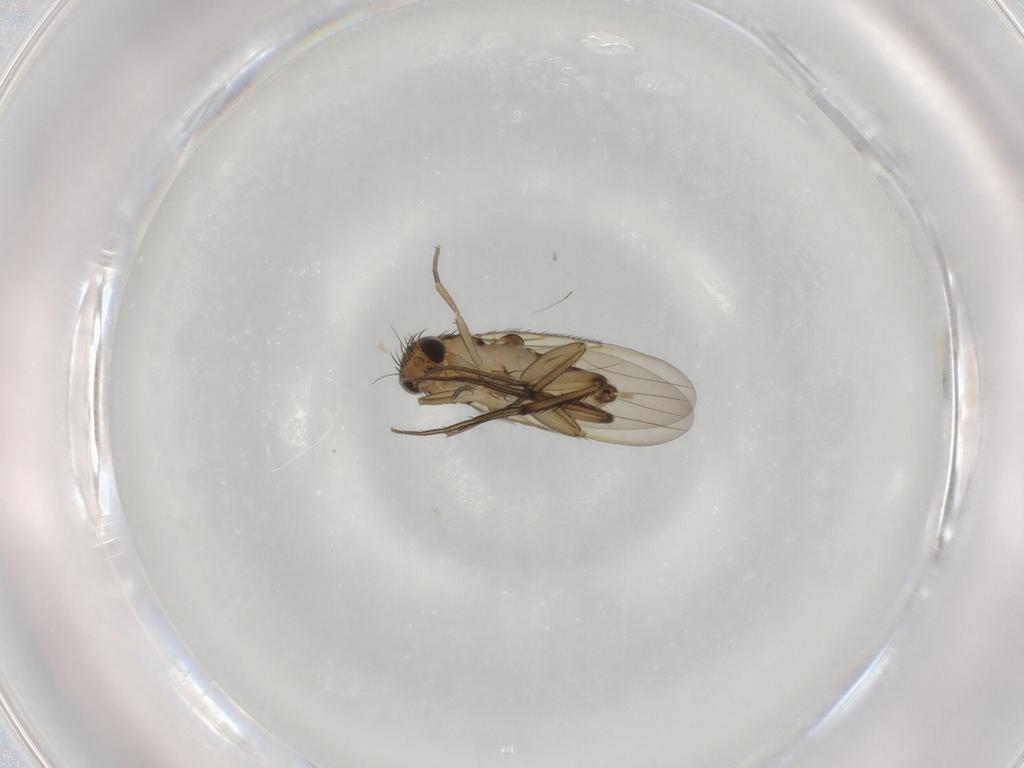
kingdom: Animalia
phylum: Arthropoda
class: Insecta
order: Diptera
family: Phoridae
